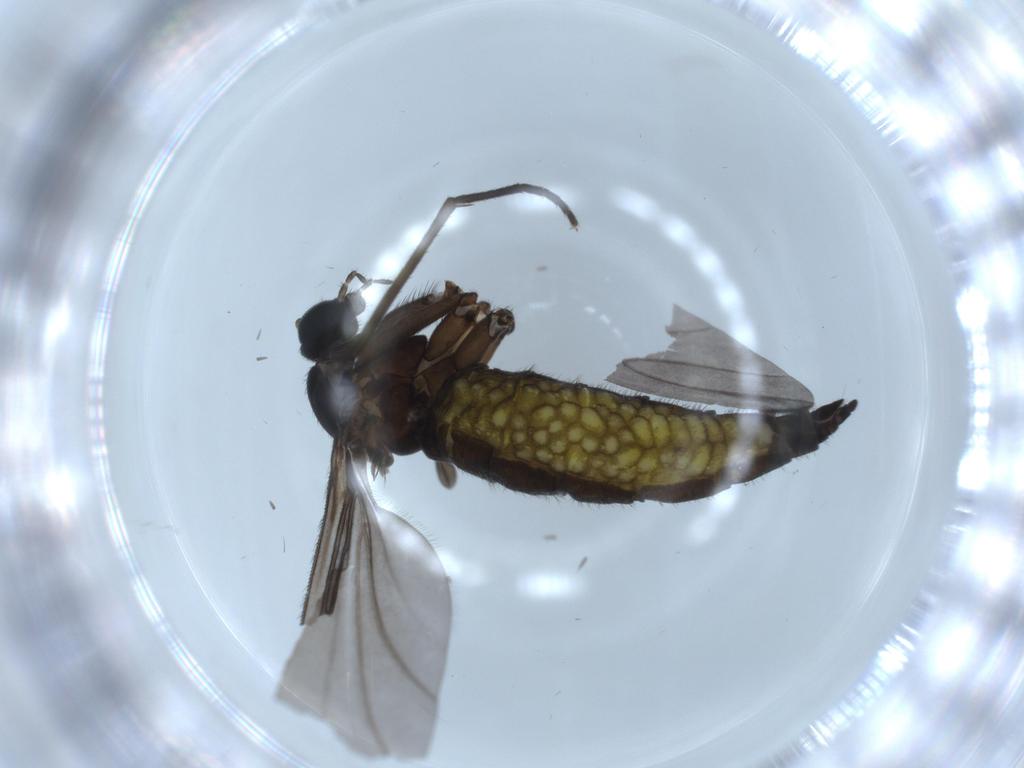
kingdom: Animalia
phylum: Arthropoda
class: Insecta
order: Diptera
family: Sciaridae
